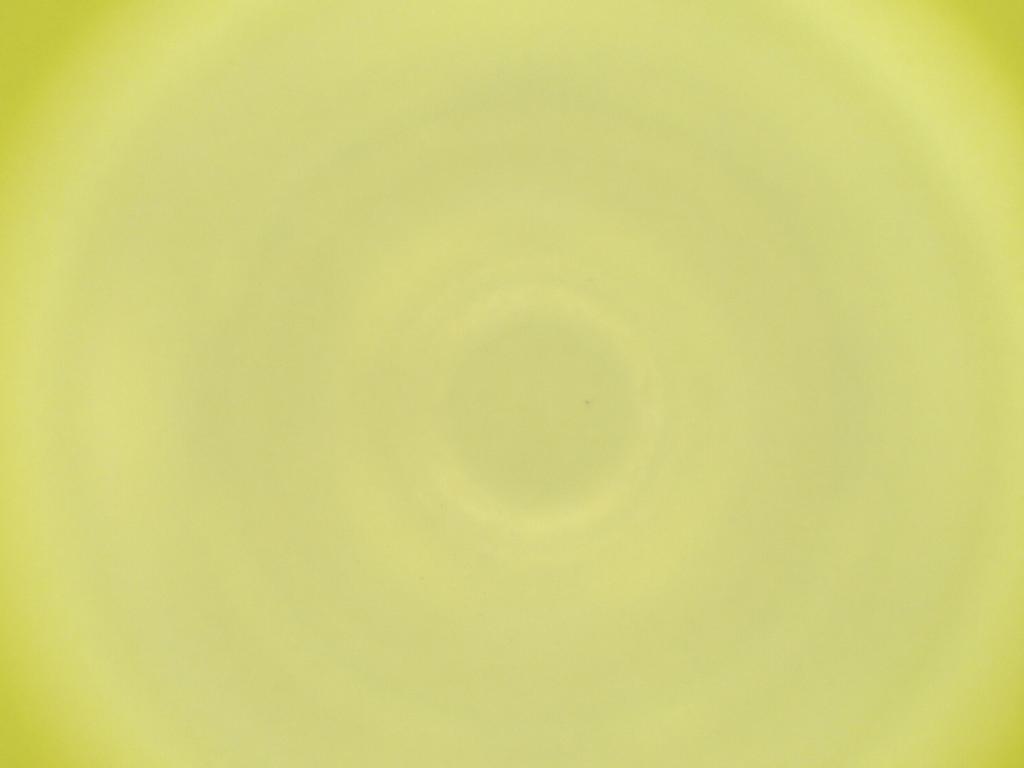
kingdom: Animalia
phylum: Arthropoda
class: Insecta
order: Diptera
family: Cecidomyiidae
